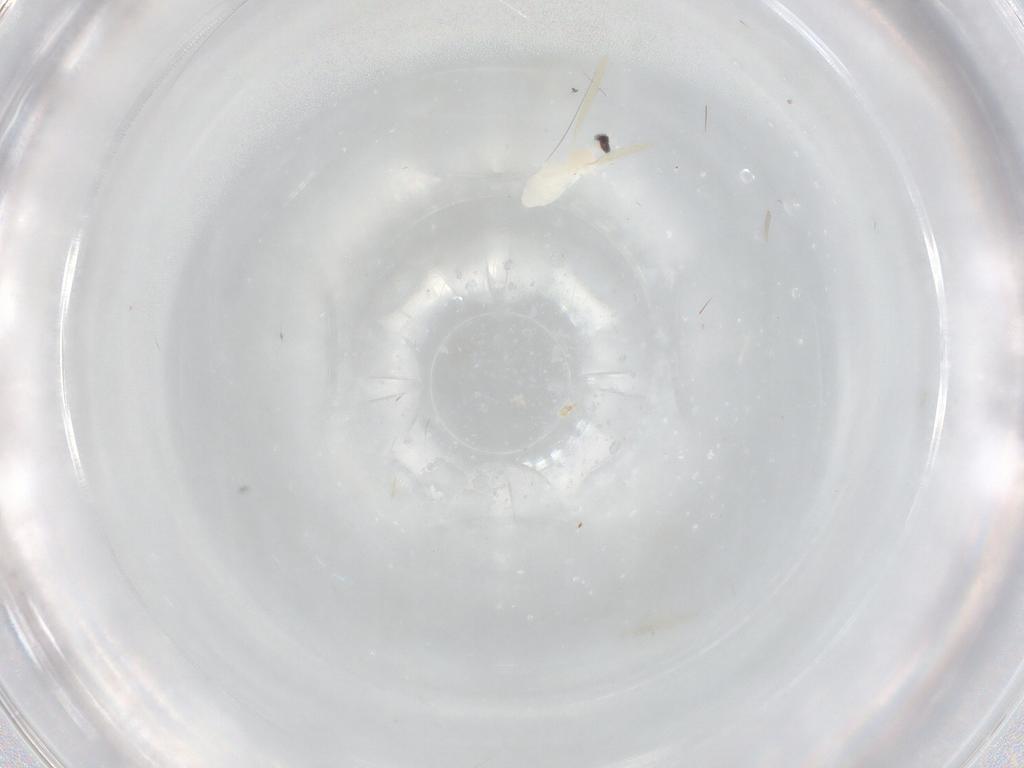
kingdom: Animalia
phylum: Arthropoda
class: Insecta
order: Diptera
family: Cecidomyiidae
